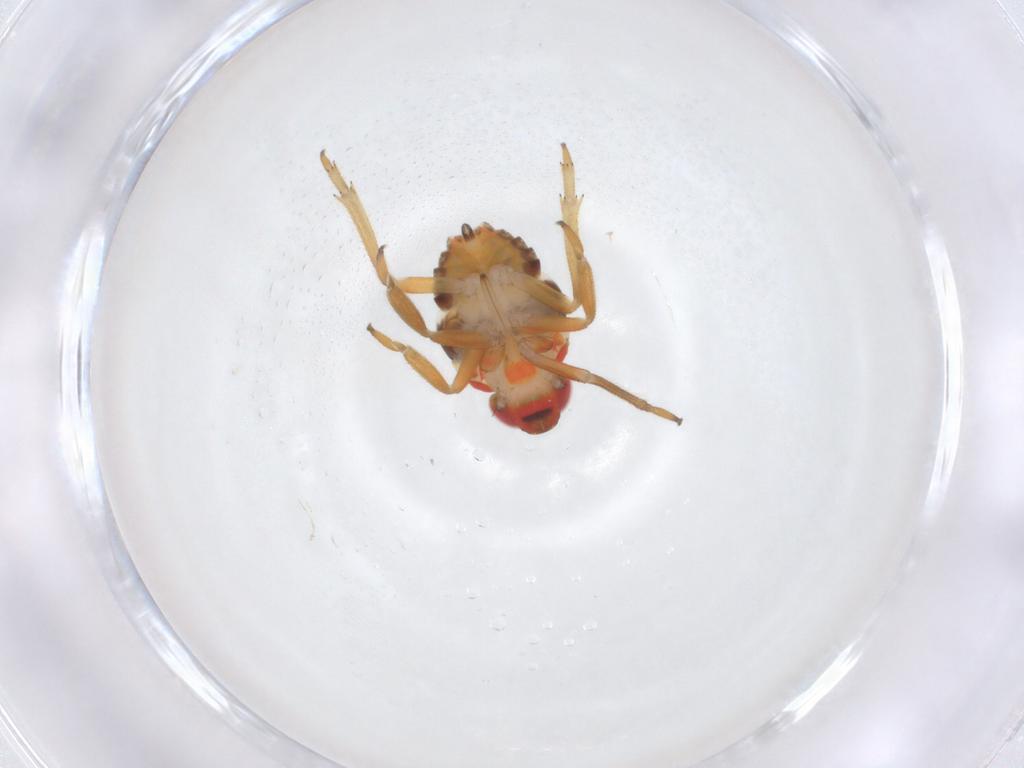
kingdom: Animalia
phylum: Arthropoda
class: Insecta
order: Hemiptera
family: Issidae
